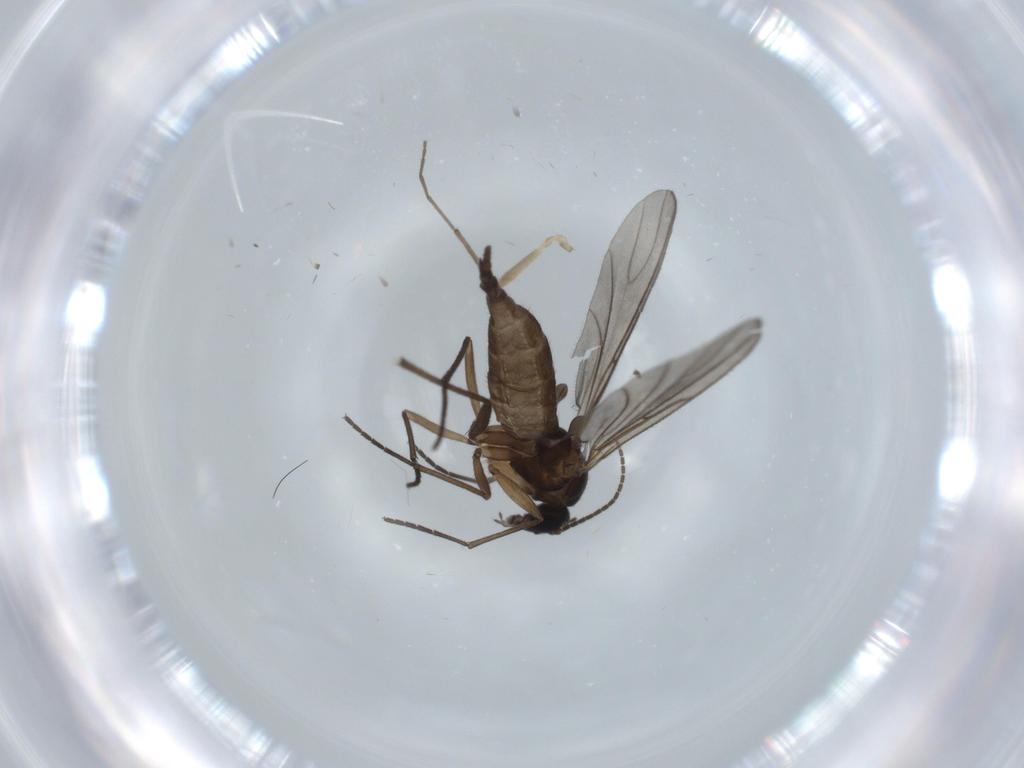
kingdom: Animalia
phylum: Arthropoda
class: Insecta
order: Diptera
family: Sciaridae
